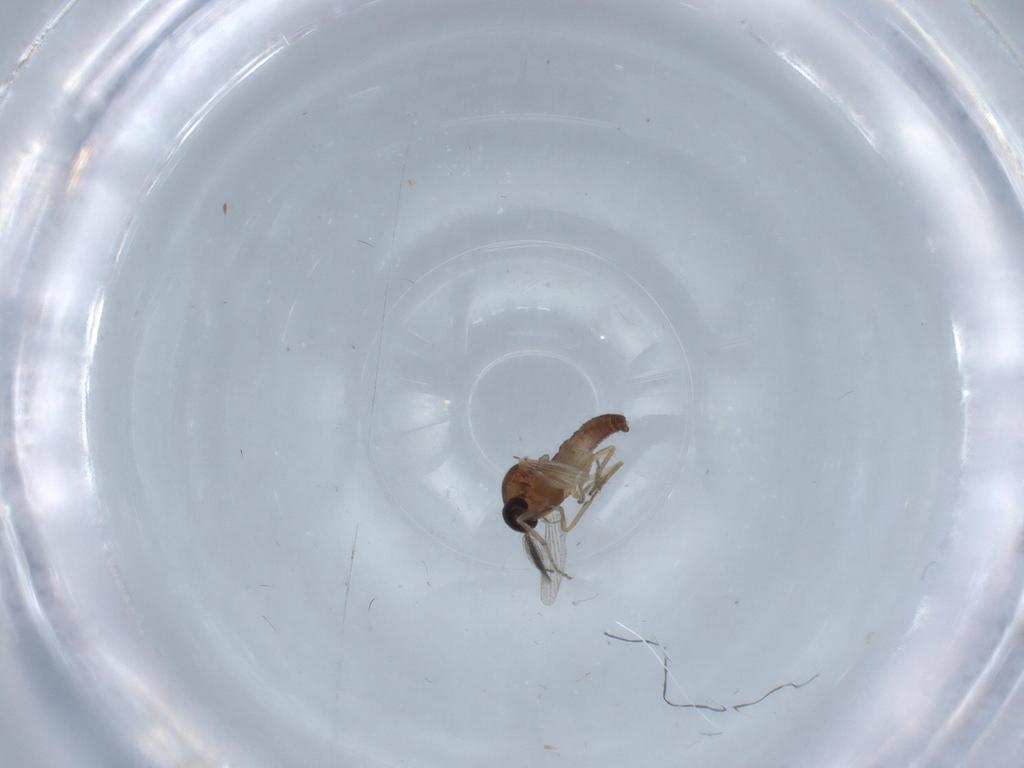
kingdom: Animalia
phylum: Arthropoda
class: Insecta
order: Diptera
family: Ceratopogonidae
